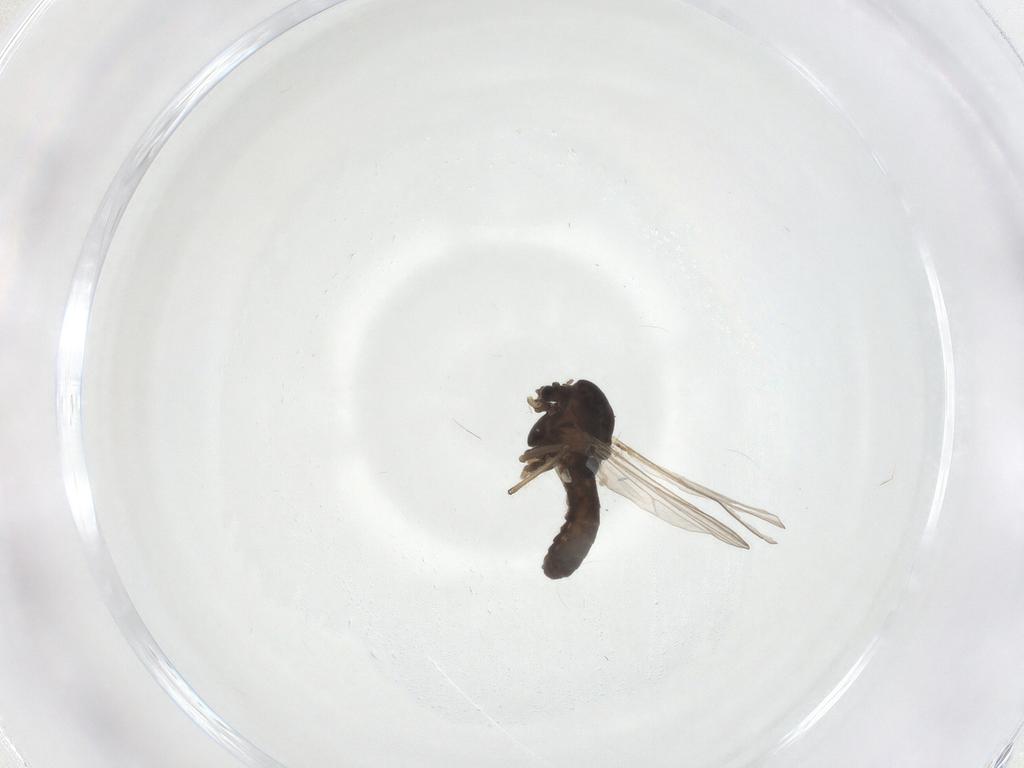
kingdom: Animalia
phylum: Arthropoda
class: Insecta
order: Diptera
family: Chironomidae
